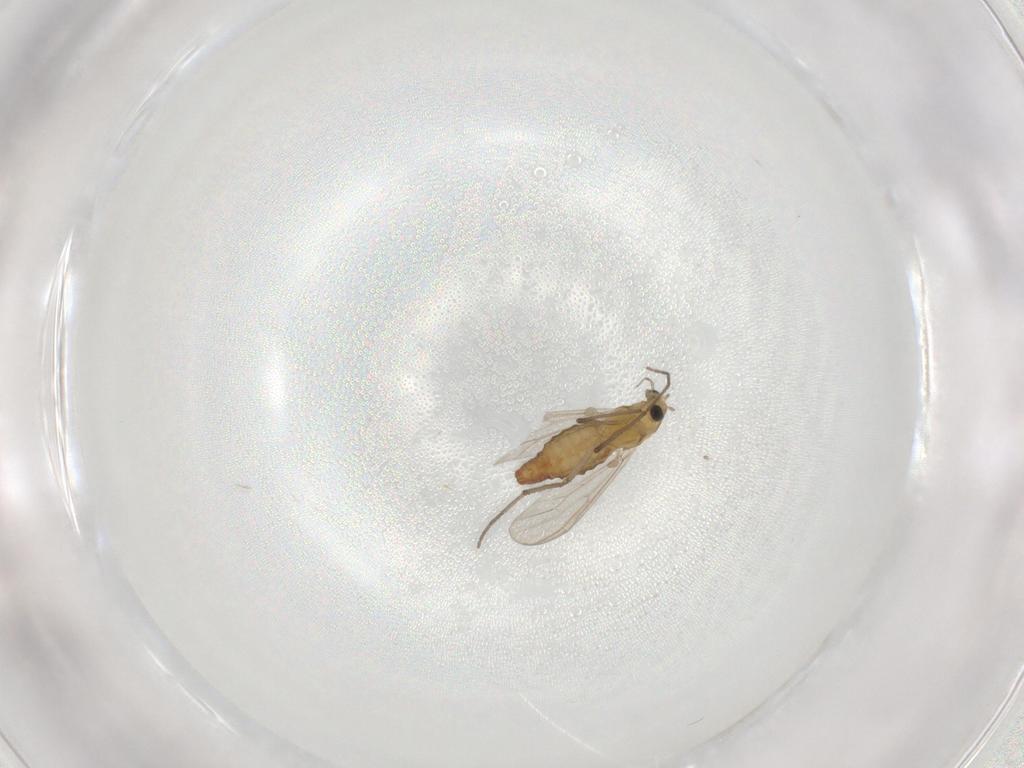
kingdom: Animalia
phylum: Arthropoda
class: Insecta
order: Diptera
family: Chironomidae
